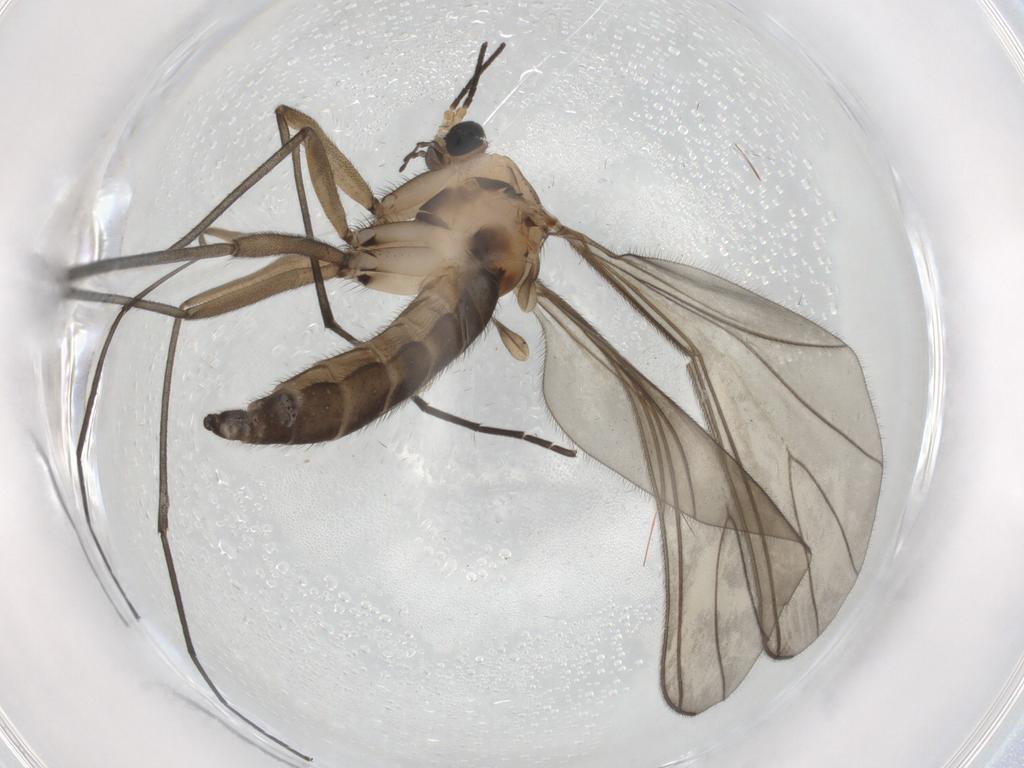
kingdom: Animalia
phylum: Arthropoda
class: Insecta
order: Diptera
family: Sciaridae
